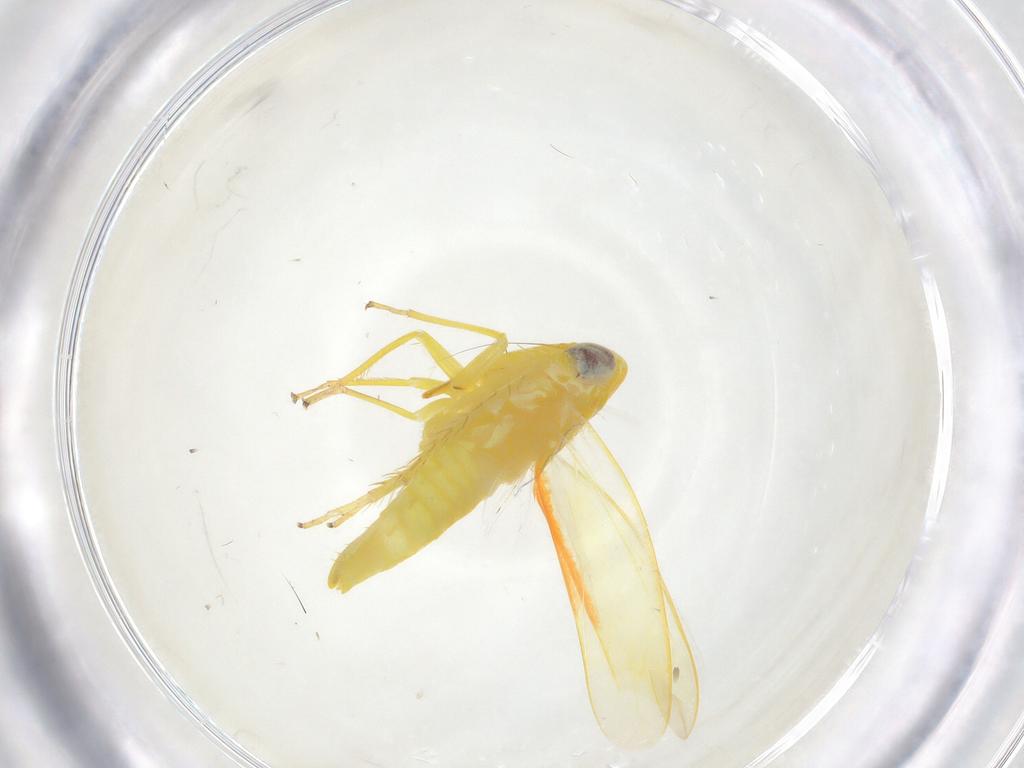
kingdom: Animalia
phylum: Arthropoda
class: Insecta
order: Hemiptera
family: Cicadellidae
